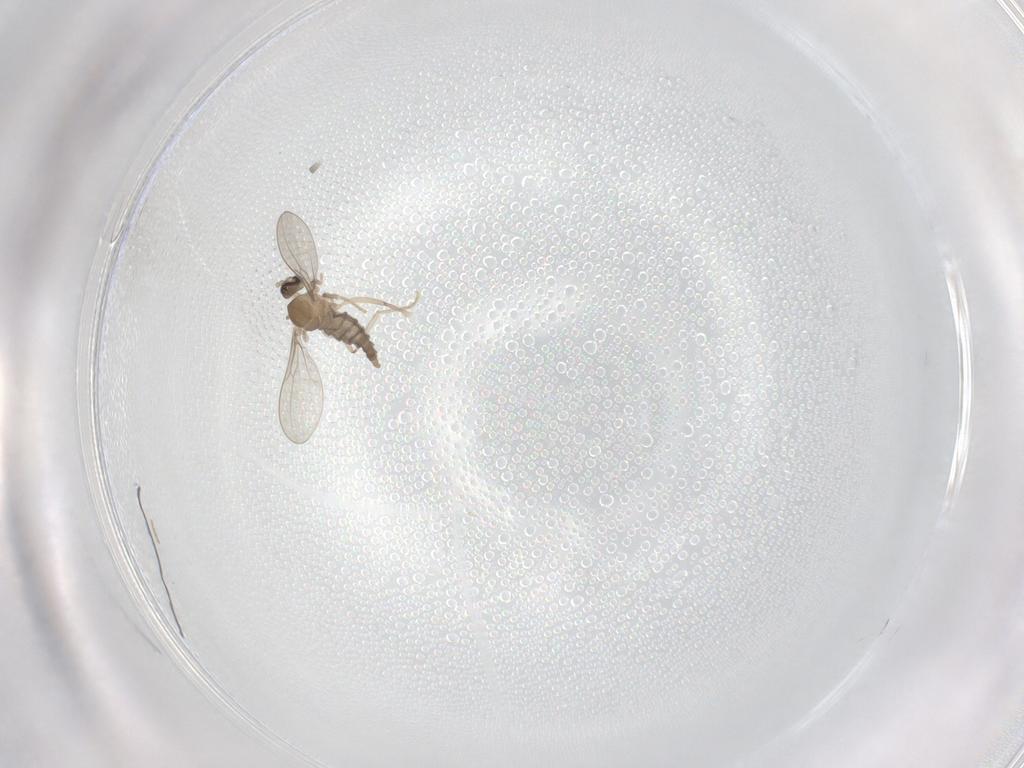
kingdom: Animalia
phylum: Arthropoda
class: Insecta
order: Diptera
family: Cecidomyiidae
